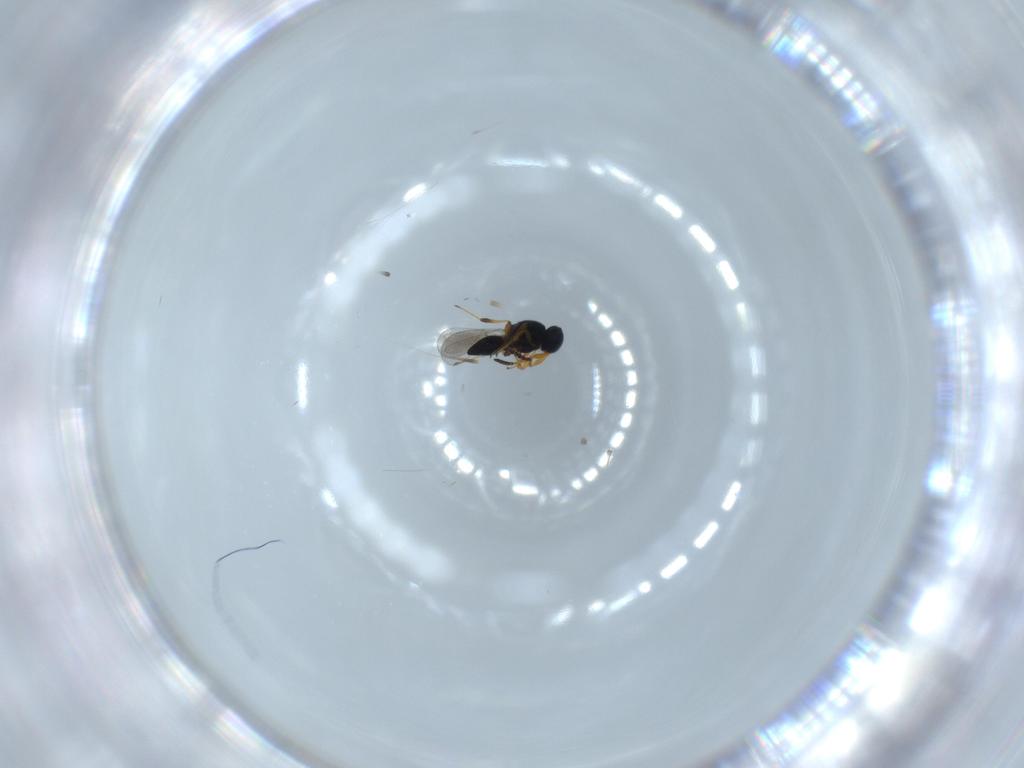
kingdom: Animalia
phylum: Arthropoda
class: Insecta
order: Hymenoptera
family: Platygastridae
